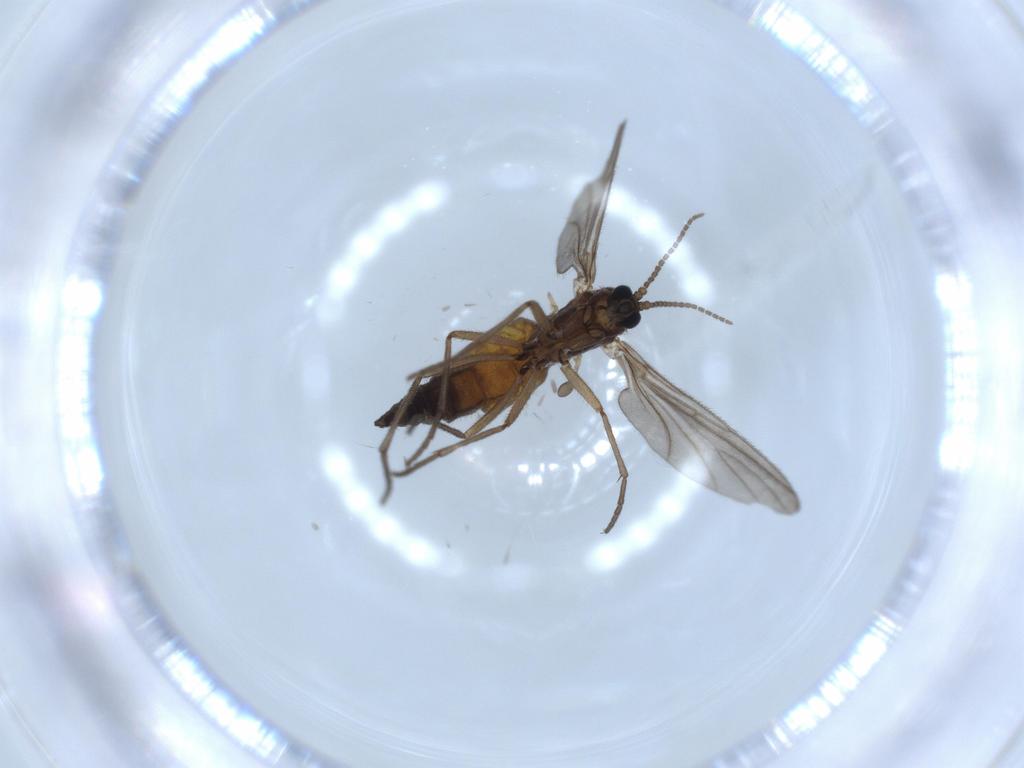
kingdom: Animalia
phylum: Arthropoda
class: Insecta
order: Diptera
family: Sciaridae
